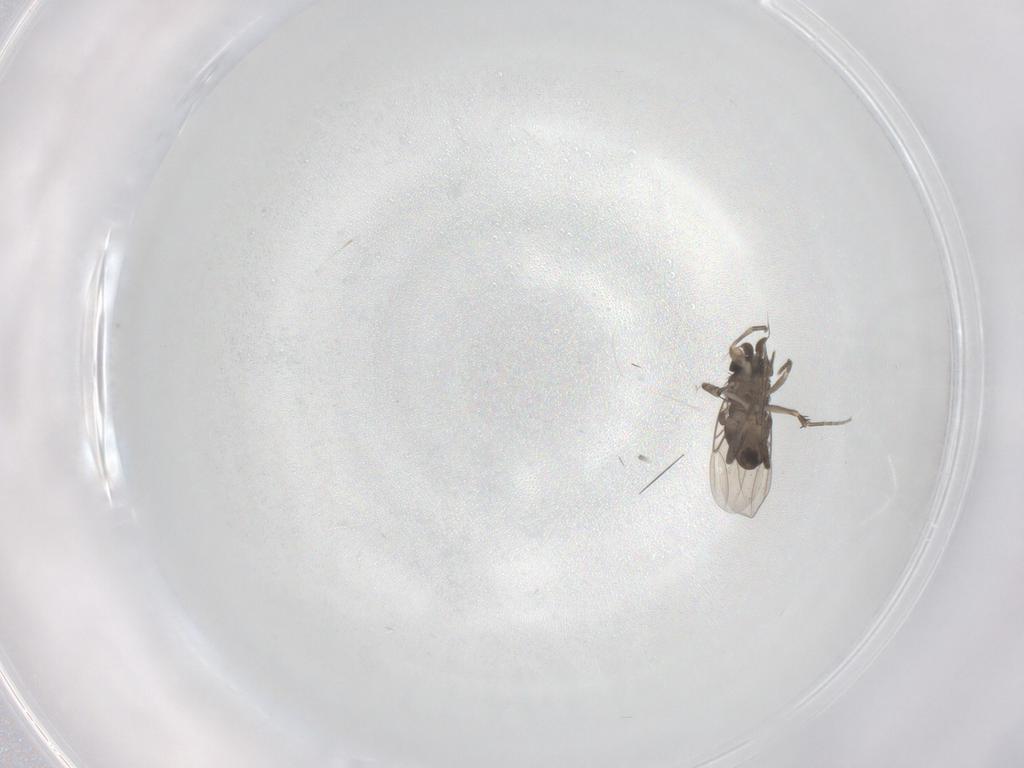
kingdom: Animalia
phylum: Arthropoda
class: Insecta
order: Diptera
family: Phoridae
